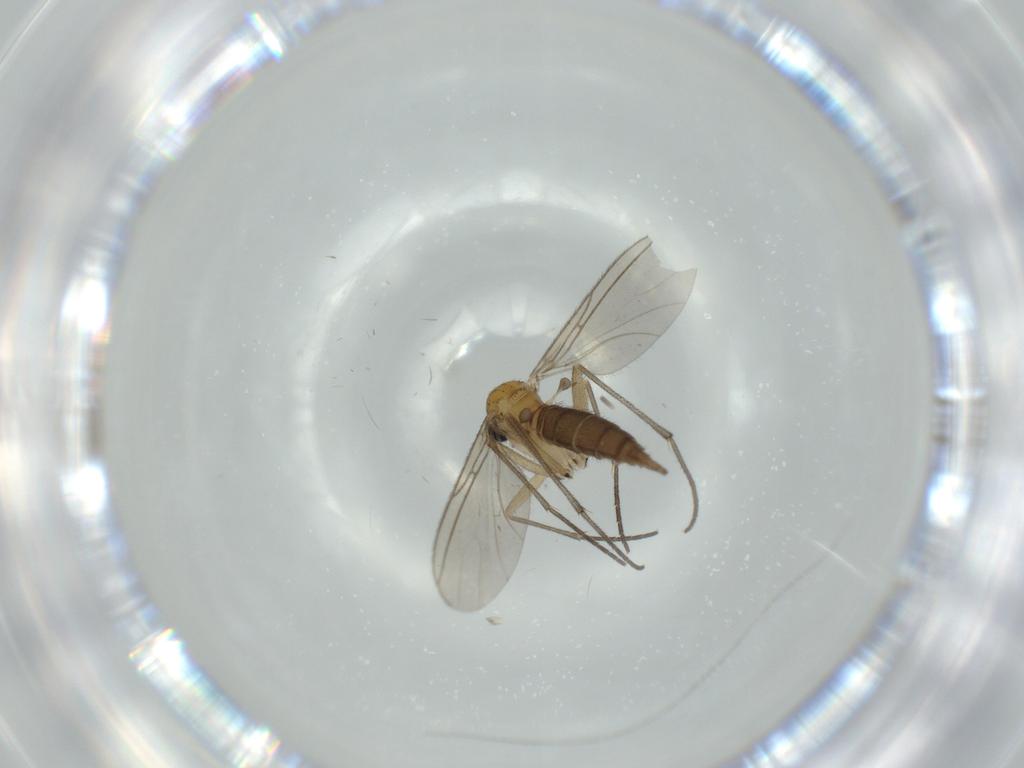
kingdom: Animalia
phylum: Arthropoda
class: Insecta
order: Diptera
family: Sciaridae
